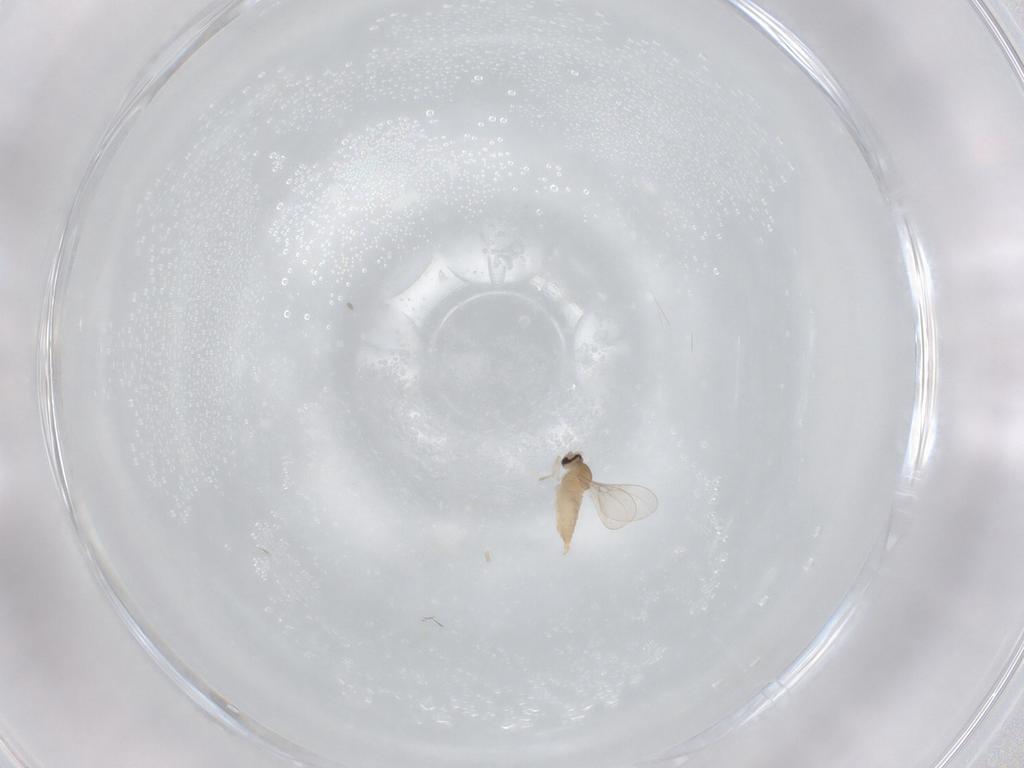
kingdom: Animalia
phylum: Arthropoda
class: Insecta
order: Diptera
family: Cecidomyiidae
